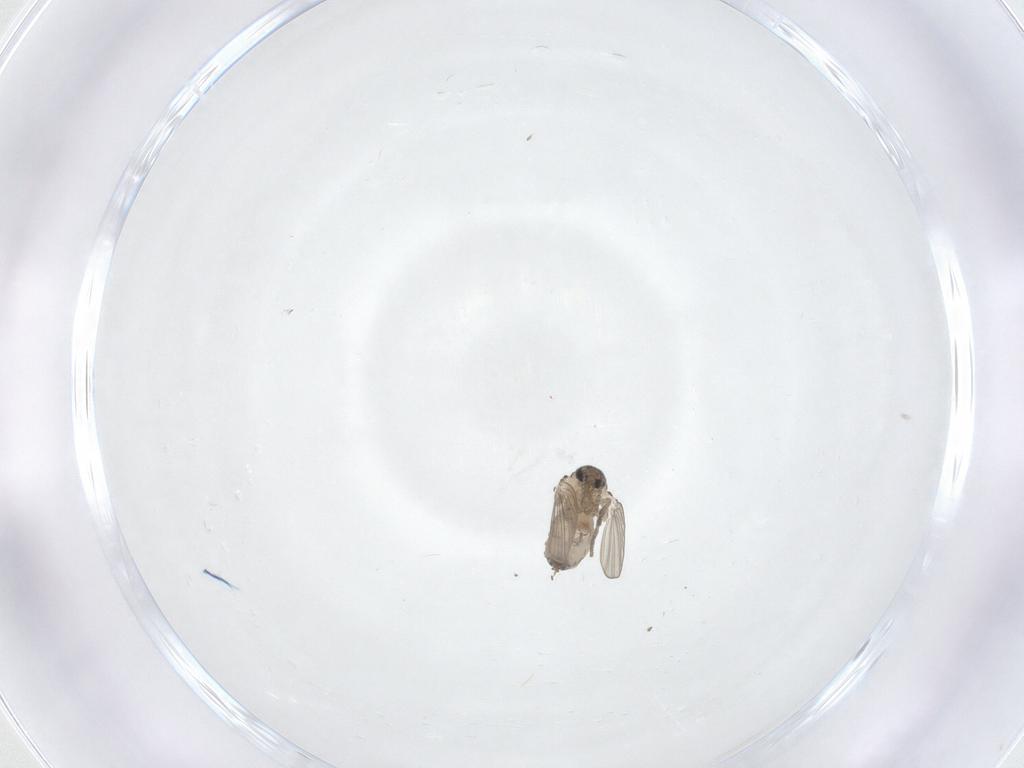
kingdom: Animalia
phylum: Arthropoda
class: Insecta
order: Diptera
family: Psychodidae
